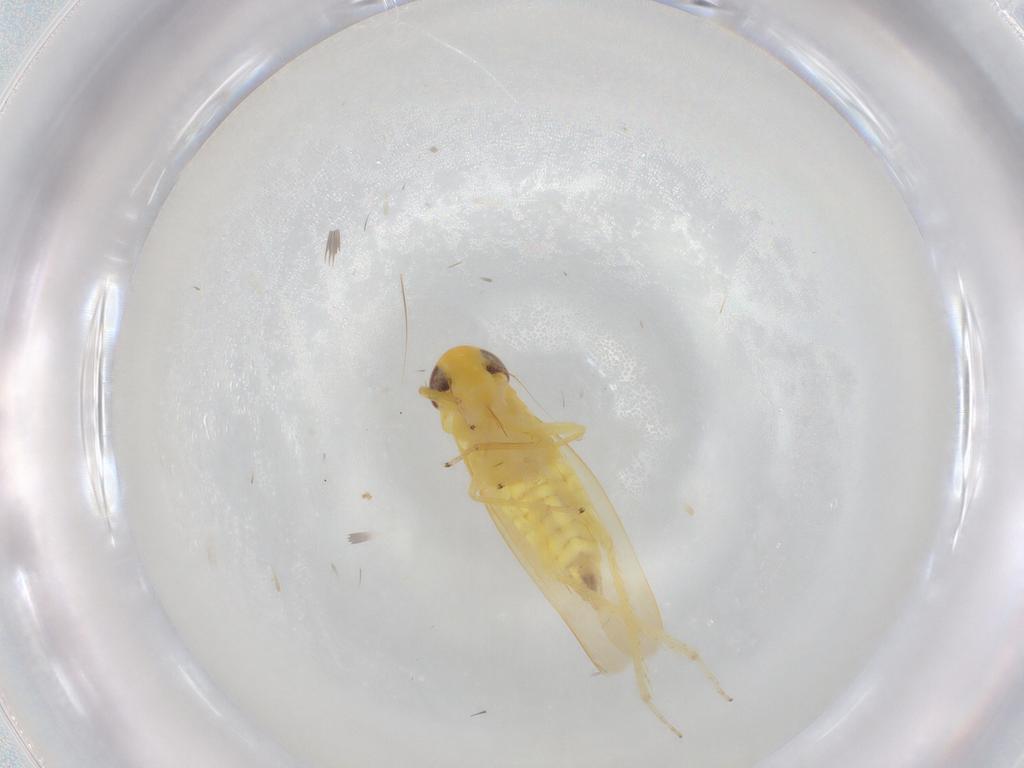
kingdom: Animalia
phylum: Arthropoda
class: Insecta
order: Hemiptera
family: Cicadellidae
